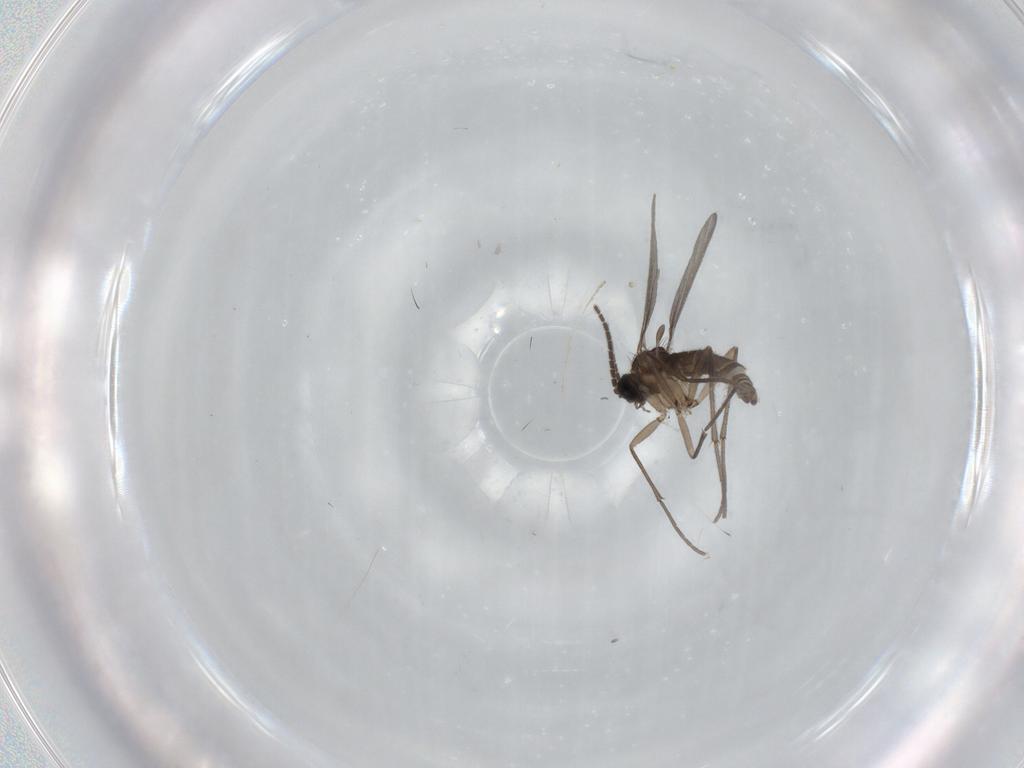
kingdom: Animalia
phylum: Arthropoda
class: Insecta
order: Diptera
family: Sciaridae
